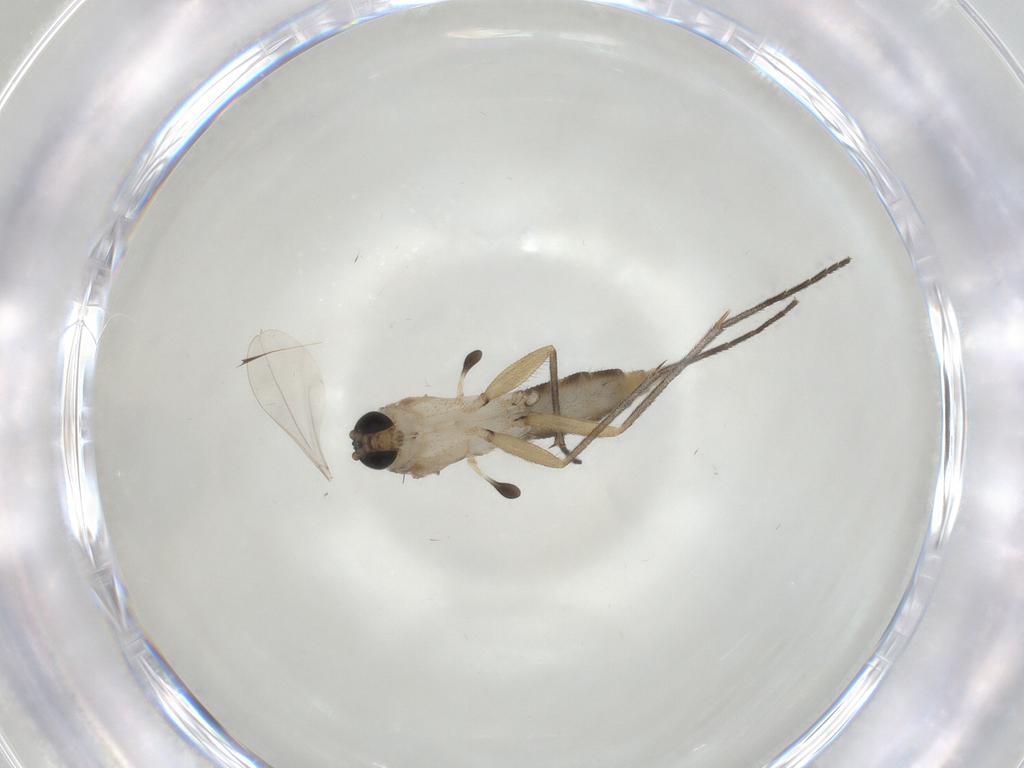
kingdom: Animalia
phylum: Arthropoda
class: Insecta
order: Diptera
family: Sciaridae
